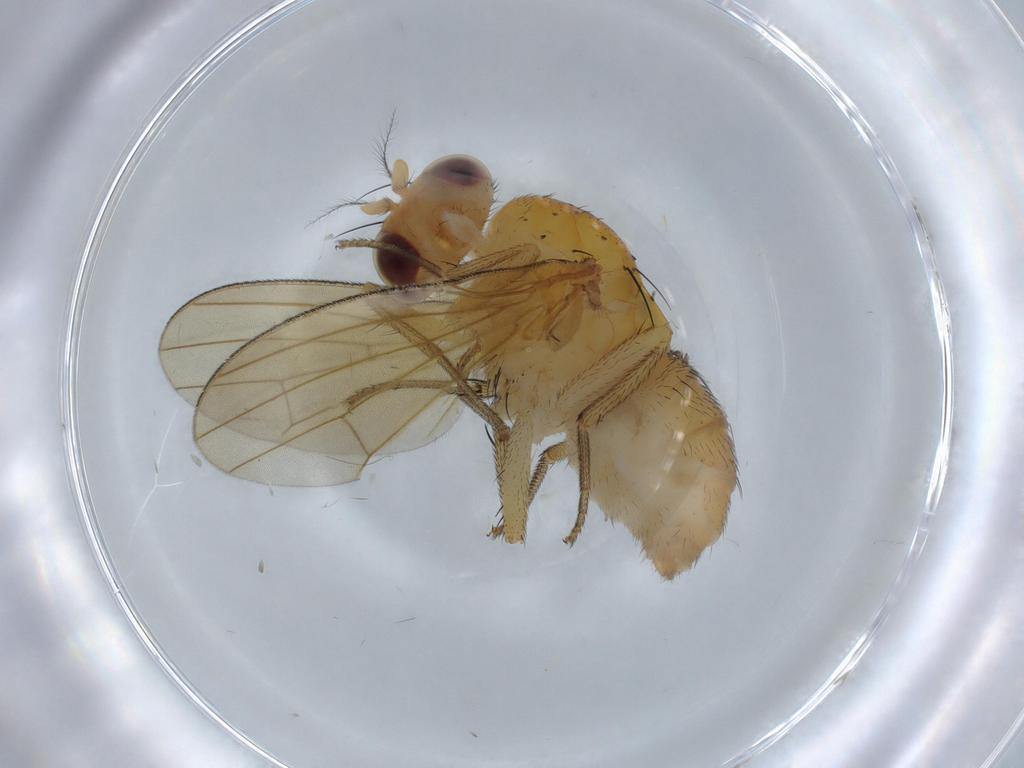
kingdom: Animalia
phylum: Arthropoda
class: Insecta
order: Diptera
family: Cecidomyiidae
